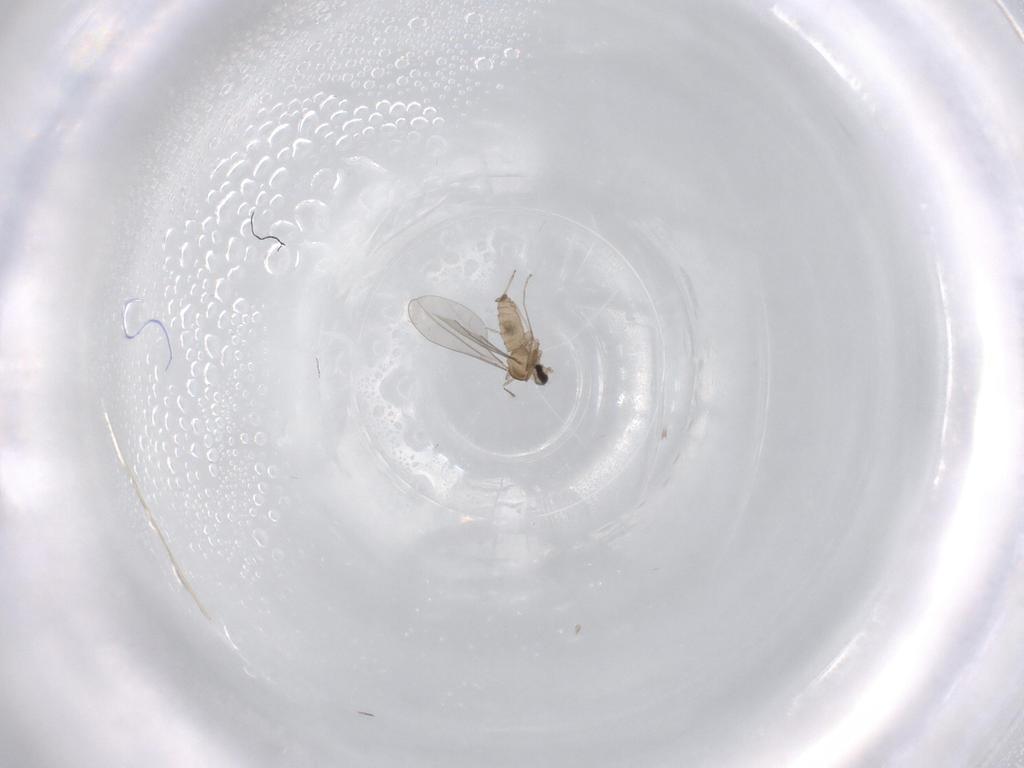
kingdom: Animalia
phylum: Arthropoda
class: Insecta
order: Diptera
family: Cecidomyiidae
